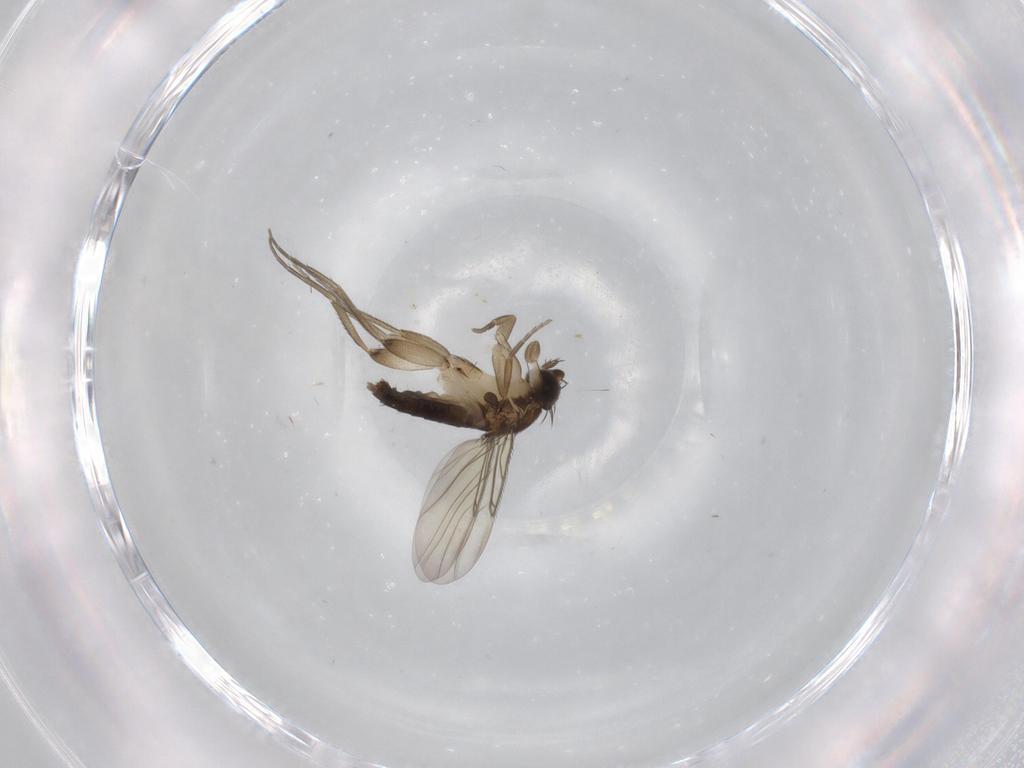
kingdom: Animalia
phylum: Arthropoda
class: Insecta
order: Diptera
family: Phoridae
